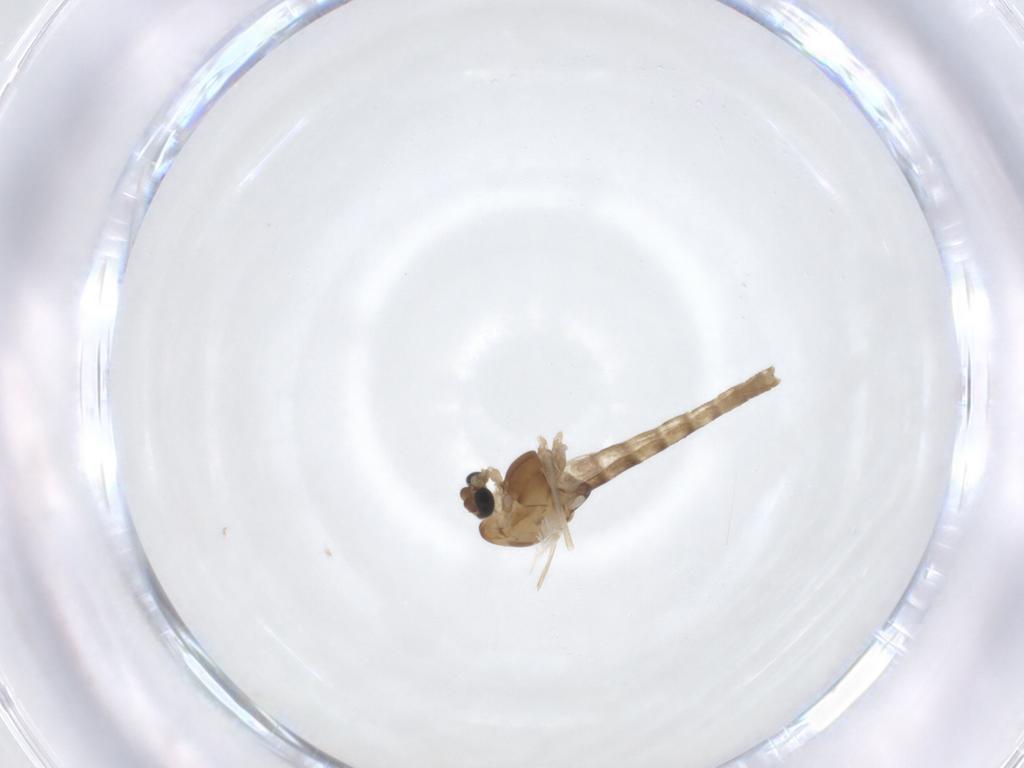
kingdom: Animalia
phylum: Arthropoda
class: Insecta
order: Diptera
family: Chironomidae
